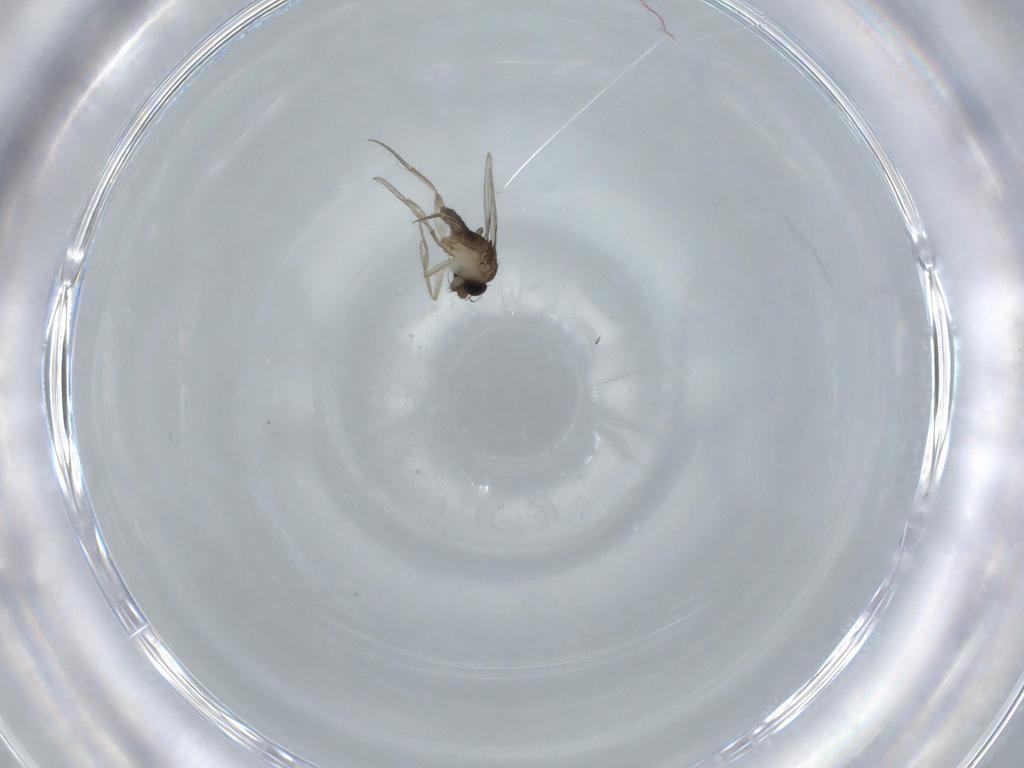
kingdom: Animalia
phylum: Arthropoda
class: Insecta
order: Diptera
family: Phoridae
